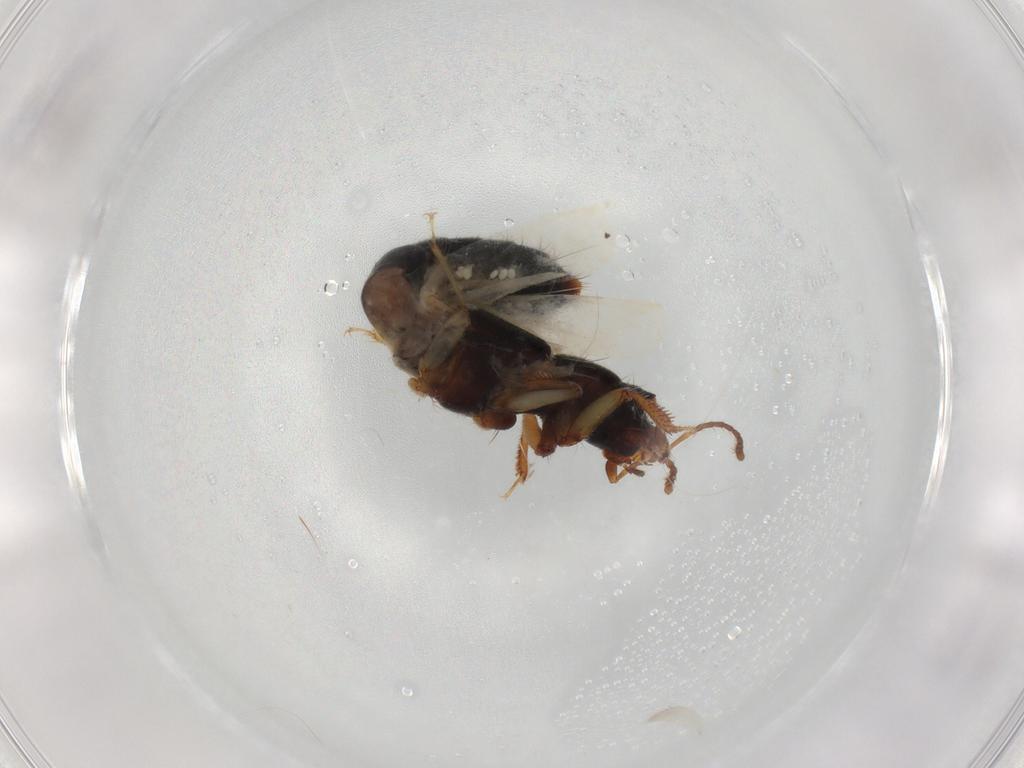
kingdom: Animalia
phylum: Arthropoda
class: Insecta
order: Coleoptera
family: Staphylinidae
